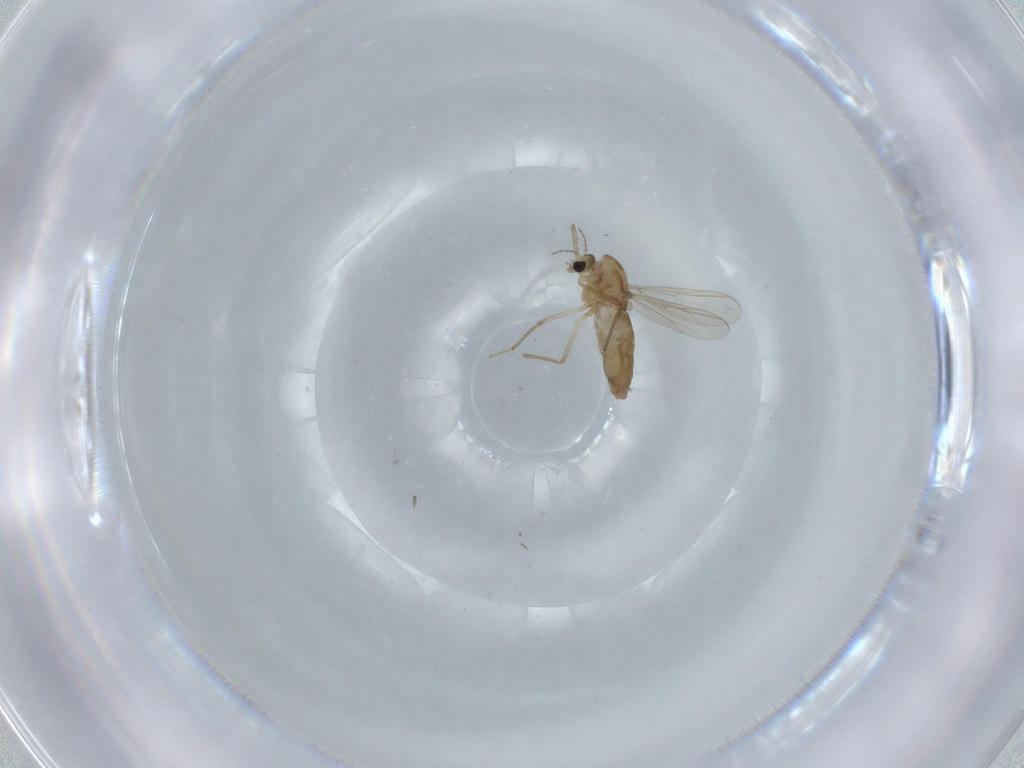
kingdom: Animalia
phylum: Arthropoda
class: Insecta
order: Diptera
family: Chironomidae
